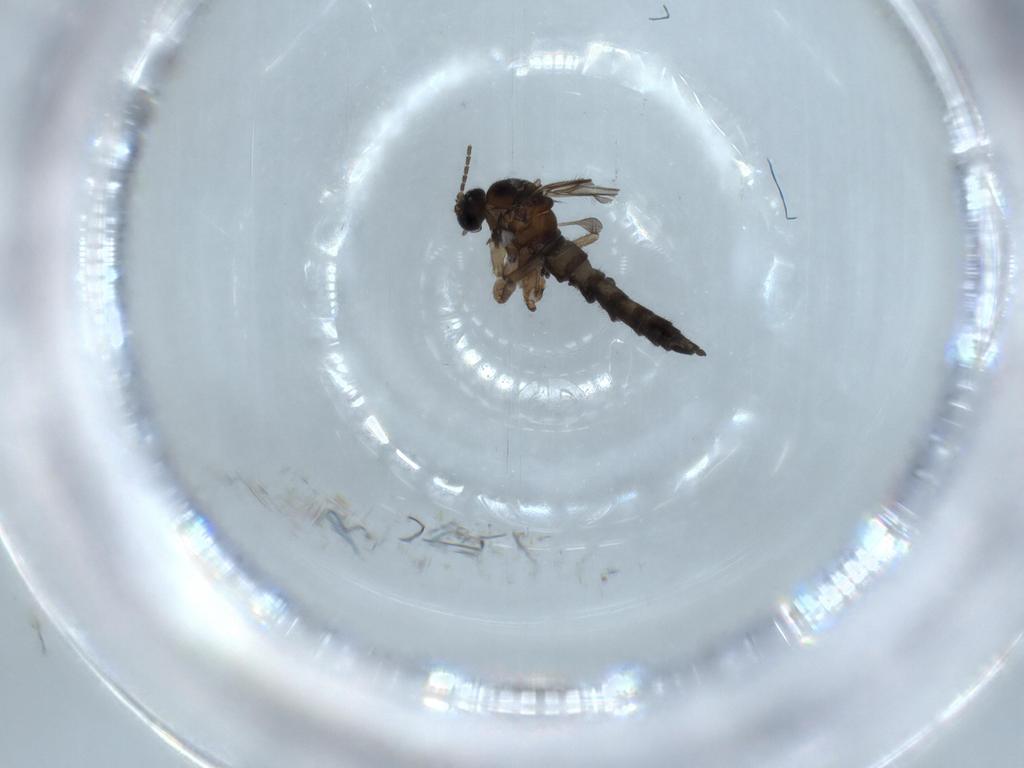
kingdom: Animalia
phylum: Arthropoda
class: Insecta
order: Diptera
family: Sciaridae
